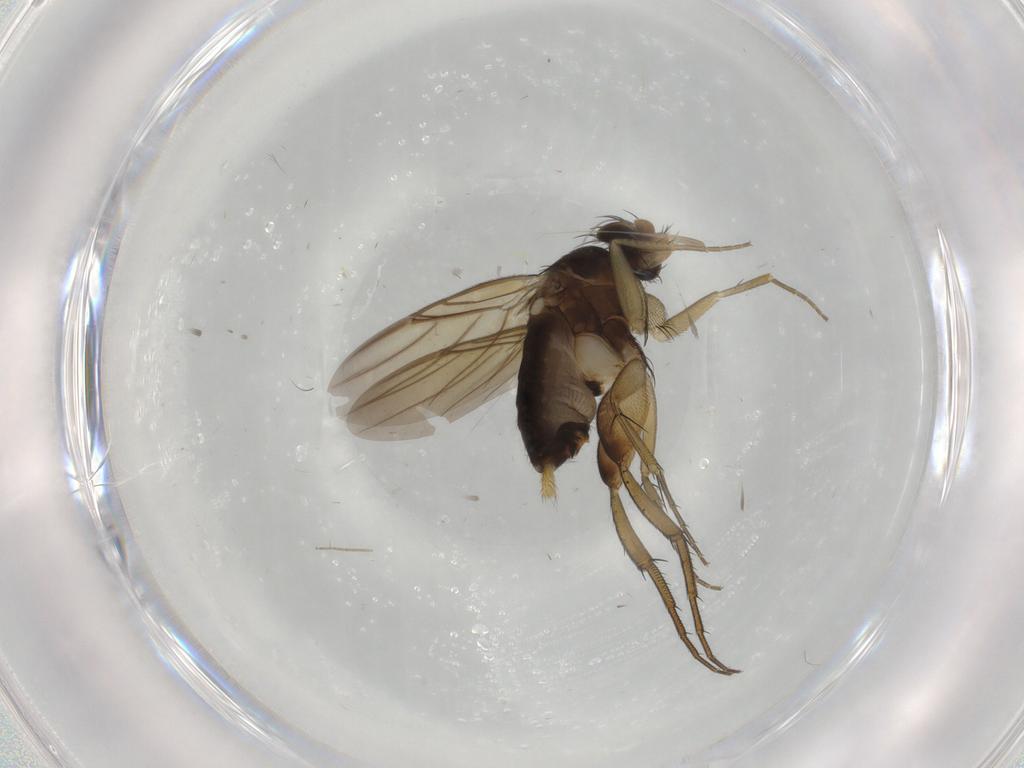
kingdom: Animalia
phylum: Arthropoda
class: Insecta
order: Diptera
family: Phoridae
